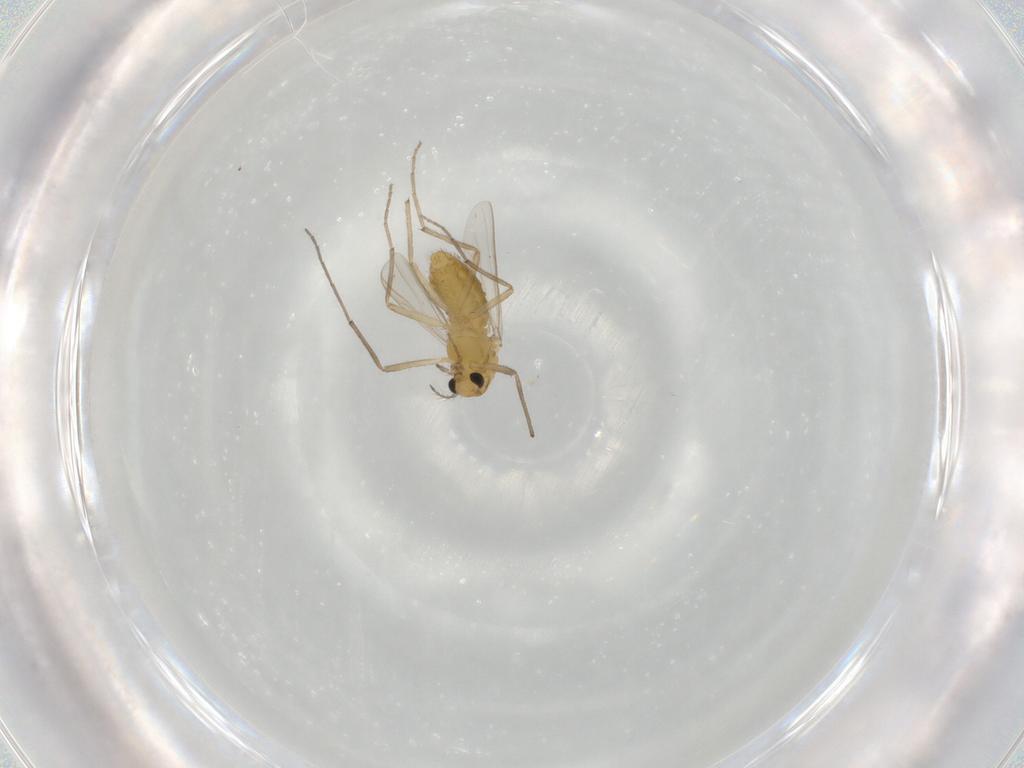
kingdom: Animalia
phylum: Arthropoda
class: Insecta
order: Diptera
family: Chironomidae
